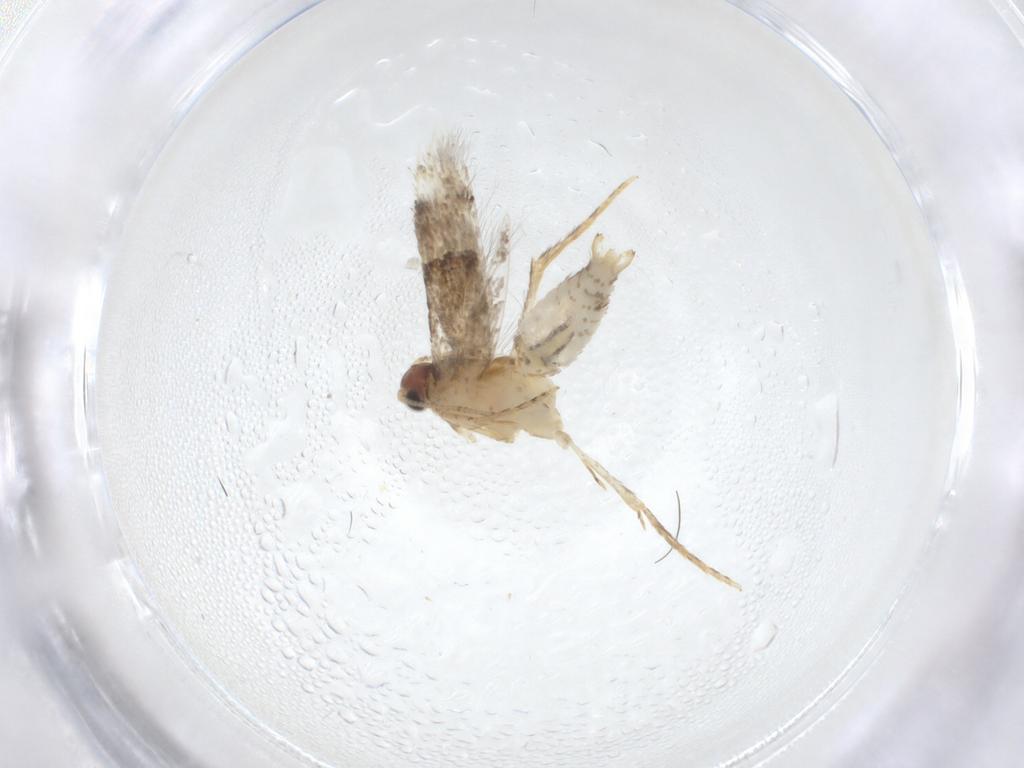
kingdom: Animalia
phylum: Arthropoda
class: Insecta
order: Lepidoptera
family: Meessiidae
